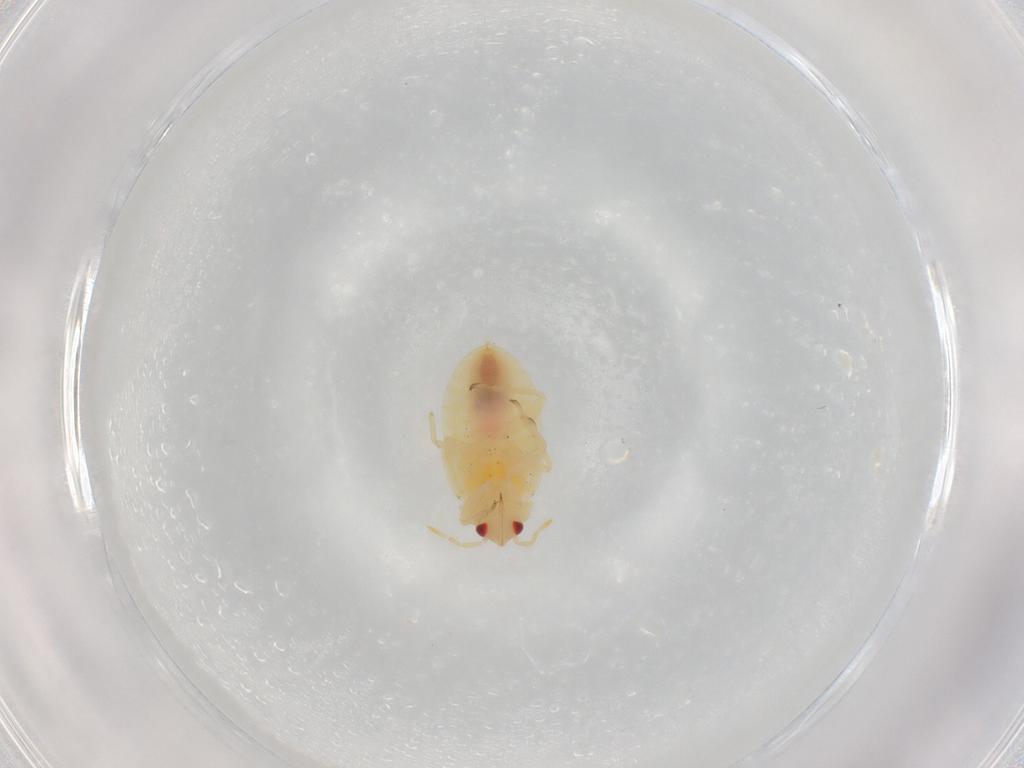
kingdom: Animalia
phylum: Arthropoda
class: Insecta
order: Hemiptera
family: Anthocoridae
